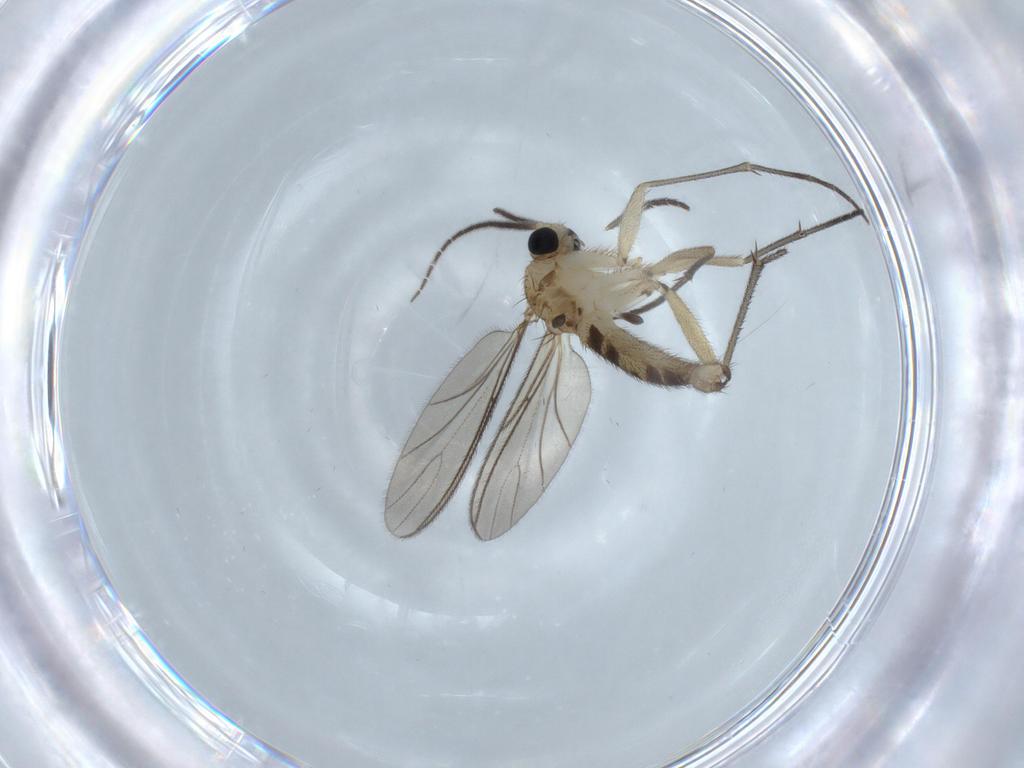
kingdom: Animalia
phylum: Arthropoda
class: Insecta
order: Diptera
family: Sciaridae
